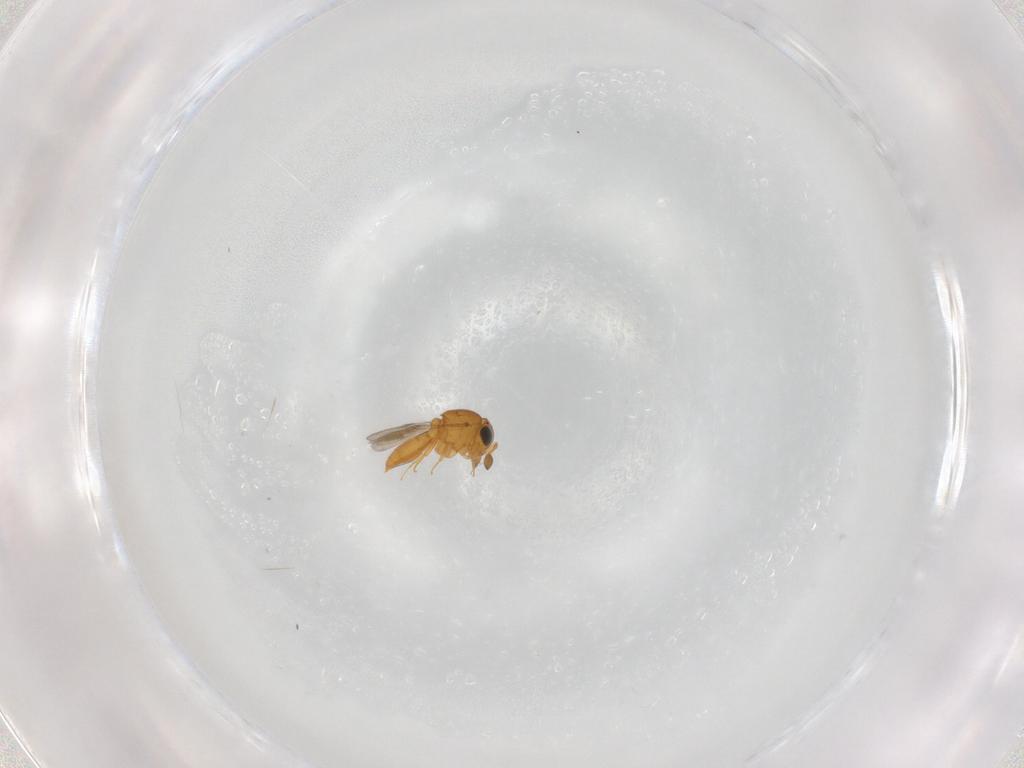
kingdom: Animalia
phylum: Arthropoda
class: Insecta
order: Hymenoptera
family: Scelionidae
